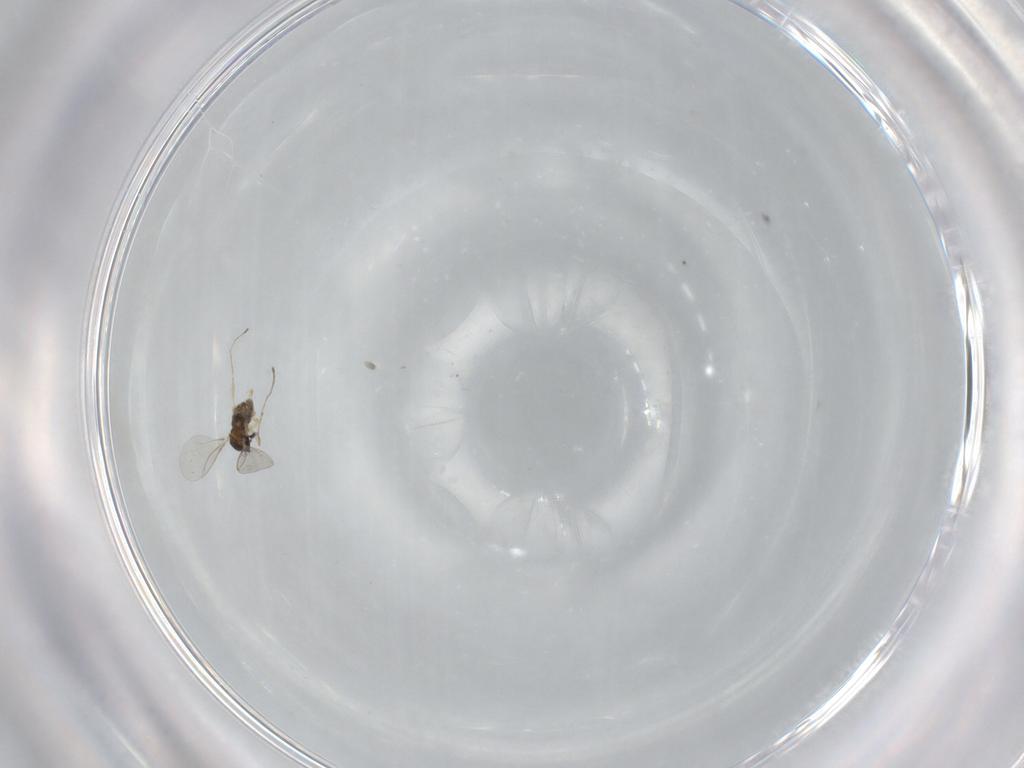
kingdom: Animalia
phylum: Arthropoda
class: Insecta
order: Diptera
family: Cecidomyiidae
